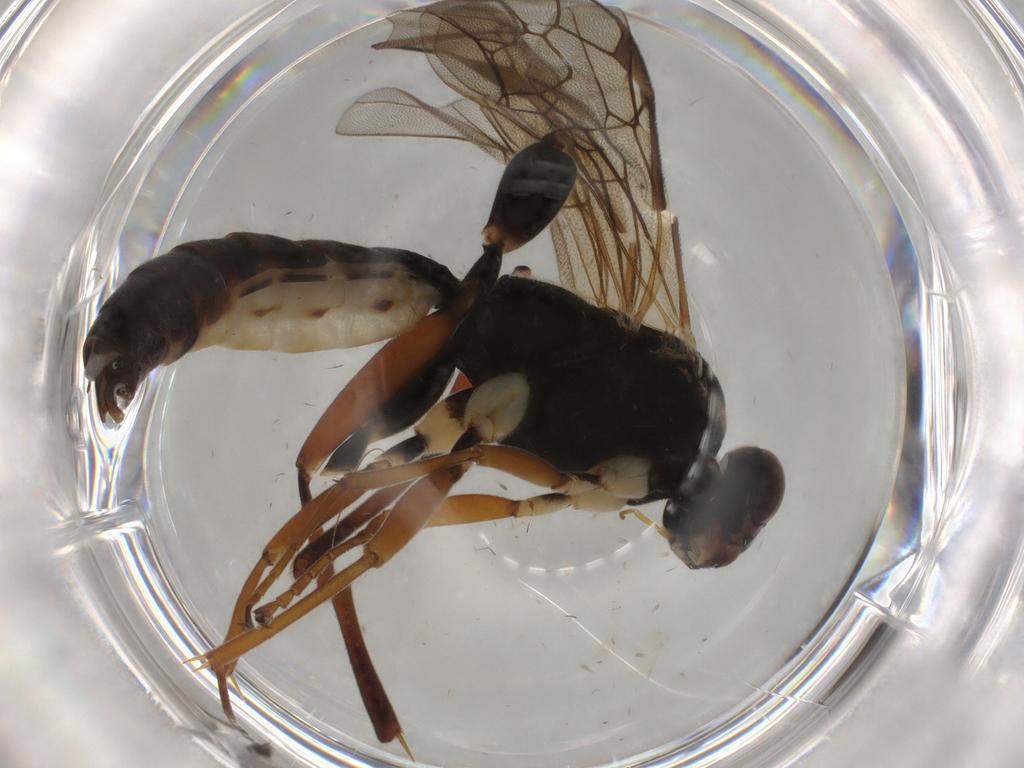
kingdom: Animalia
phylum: Arthropoda
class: Insecta
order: Hymenoptera
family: Ichneumonidae
